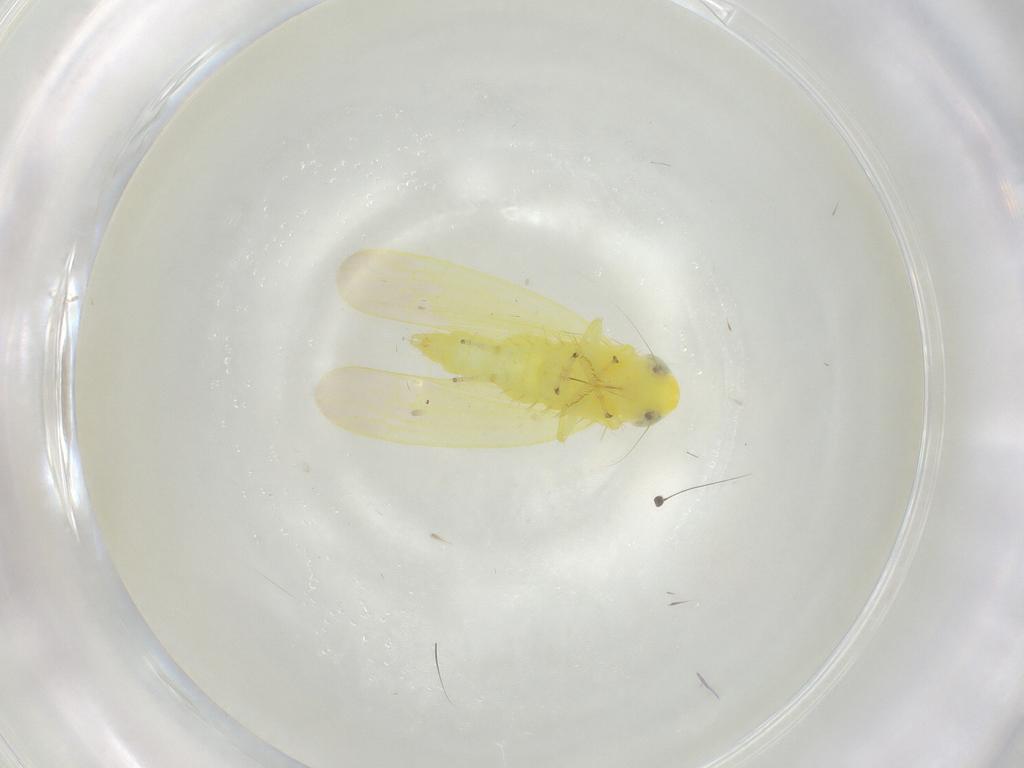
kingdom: Animalia
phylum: Arthropoda
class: Insecta
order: Hemiptera
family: Cicadellidae
